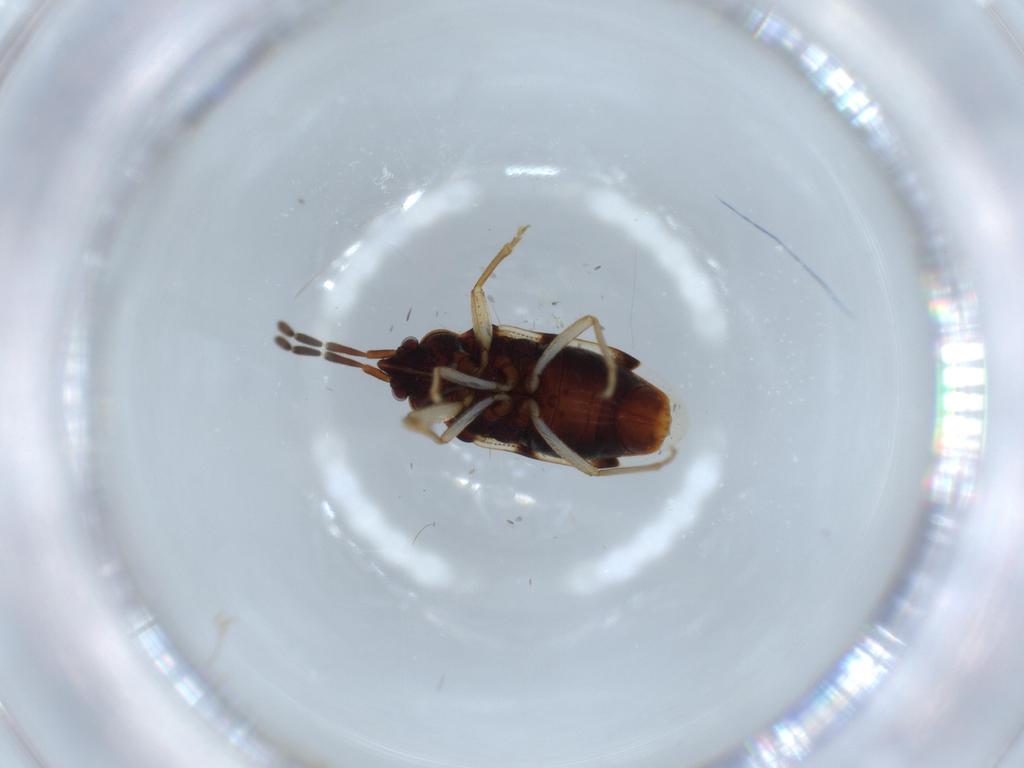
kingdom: Animalia
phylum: Arthropoda
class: Insecta
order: Hemiptera
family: Rhyparochromidae
